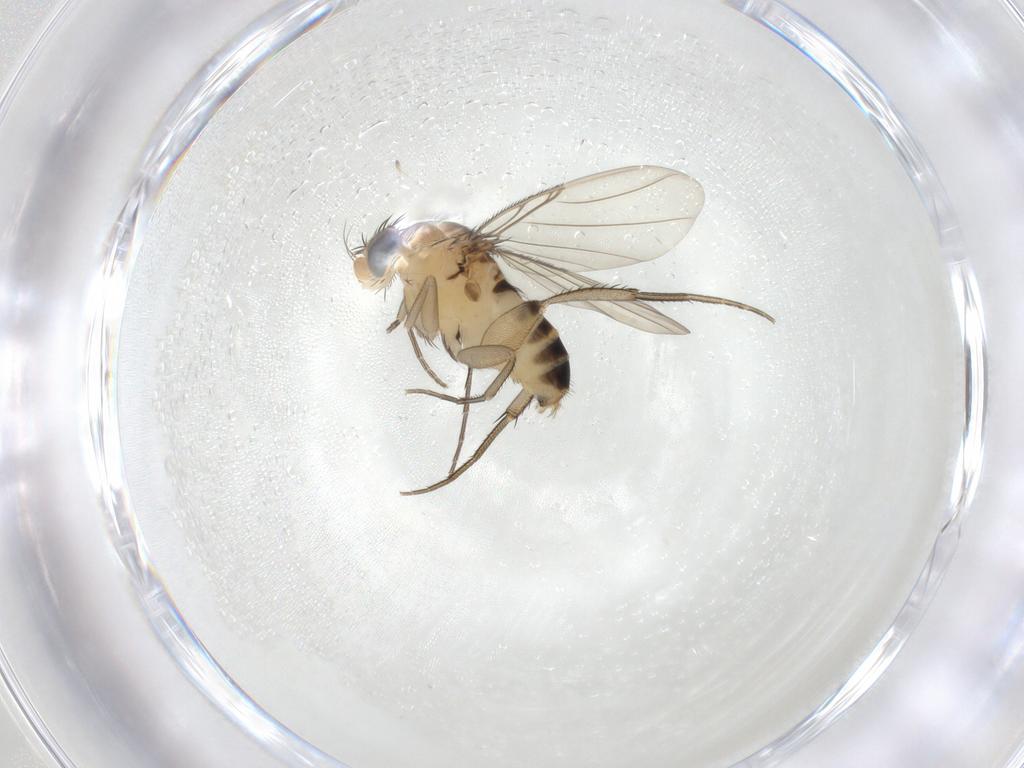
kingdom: Animalia
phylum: Arthropoda
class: Insecta
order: Diptera
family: Phoridae
